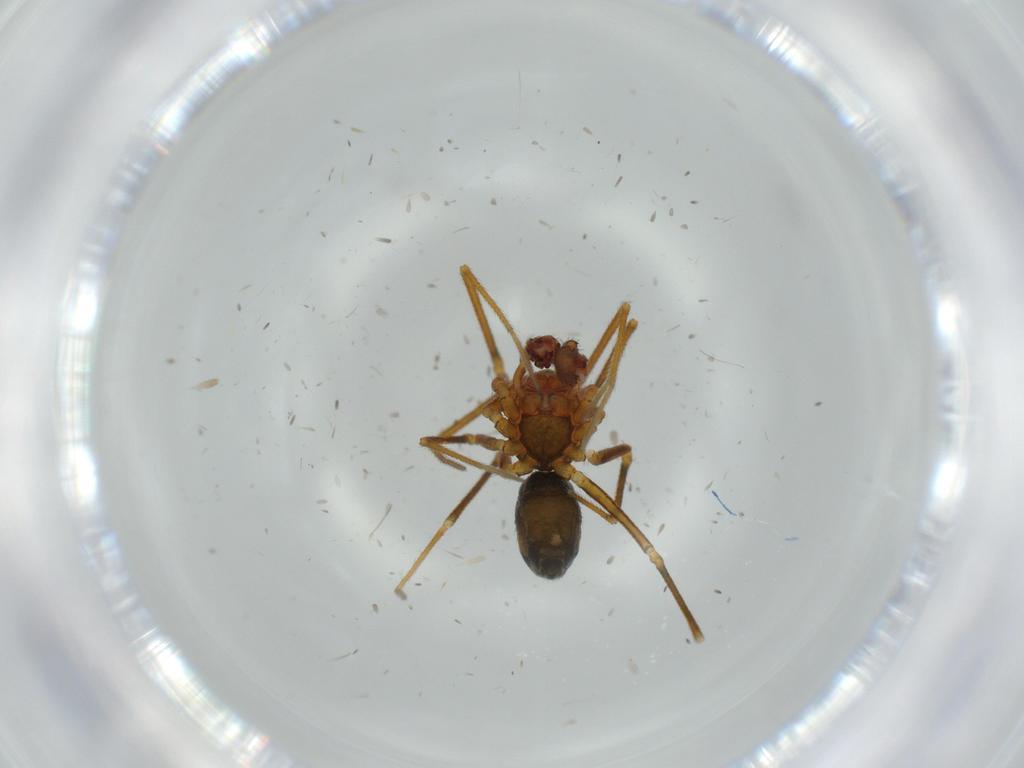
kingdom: Animalia
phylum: Arthropoda
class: Arachnida
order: Araneae
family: Linyphiidae
